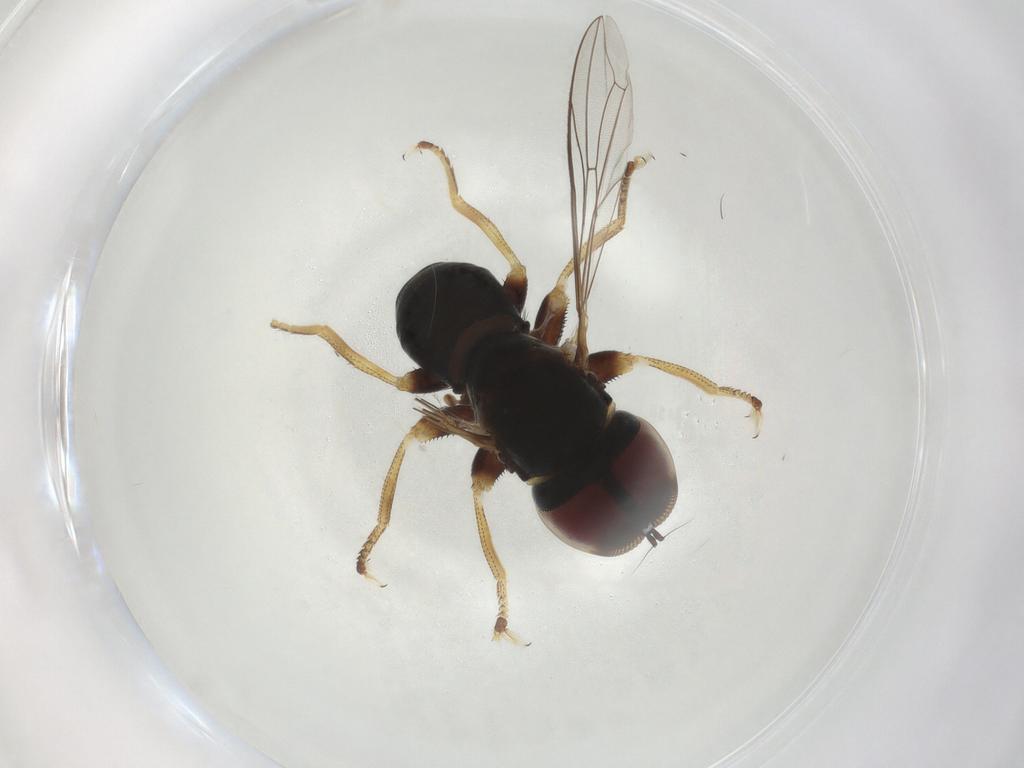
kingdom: Animalia
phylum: Arthropoda
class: Insecta
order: Diptera
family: Pipunculidae
